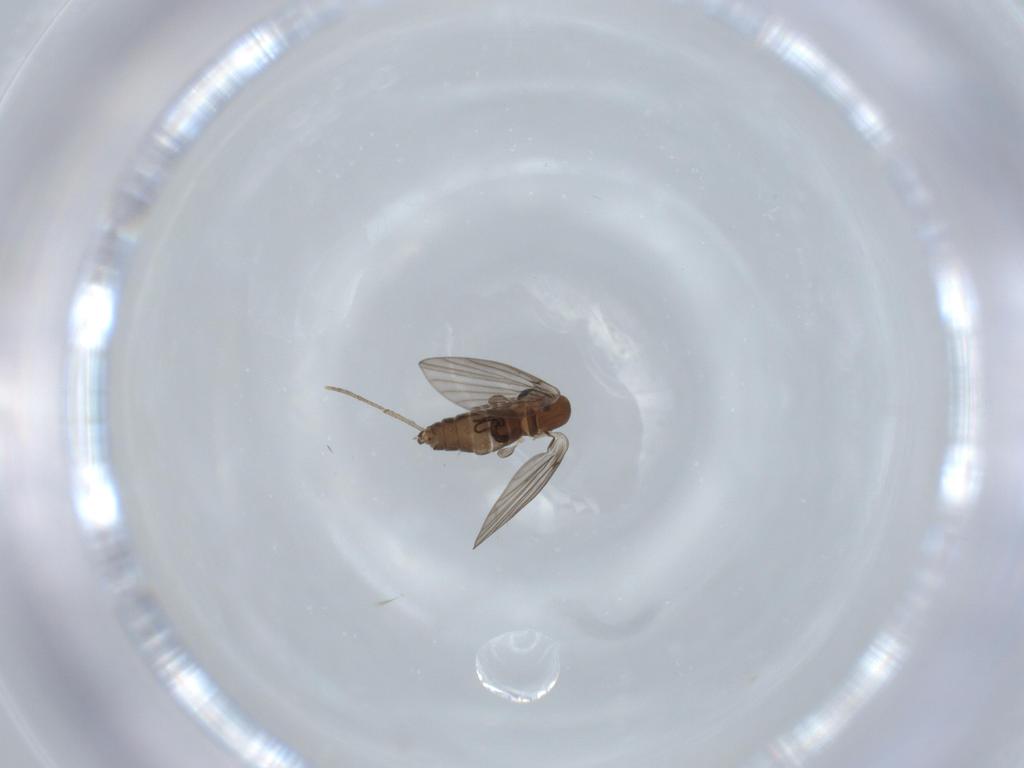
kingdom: Animalia
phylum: Arthropoda
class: Insecta
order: Diptera
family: Psychodidae
